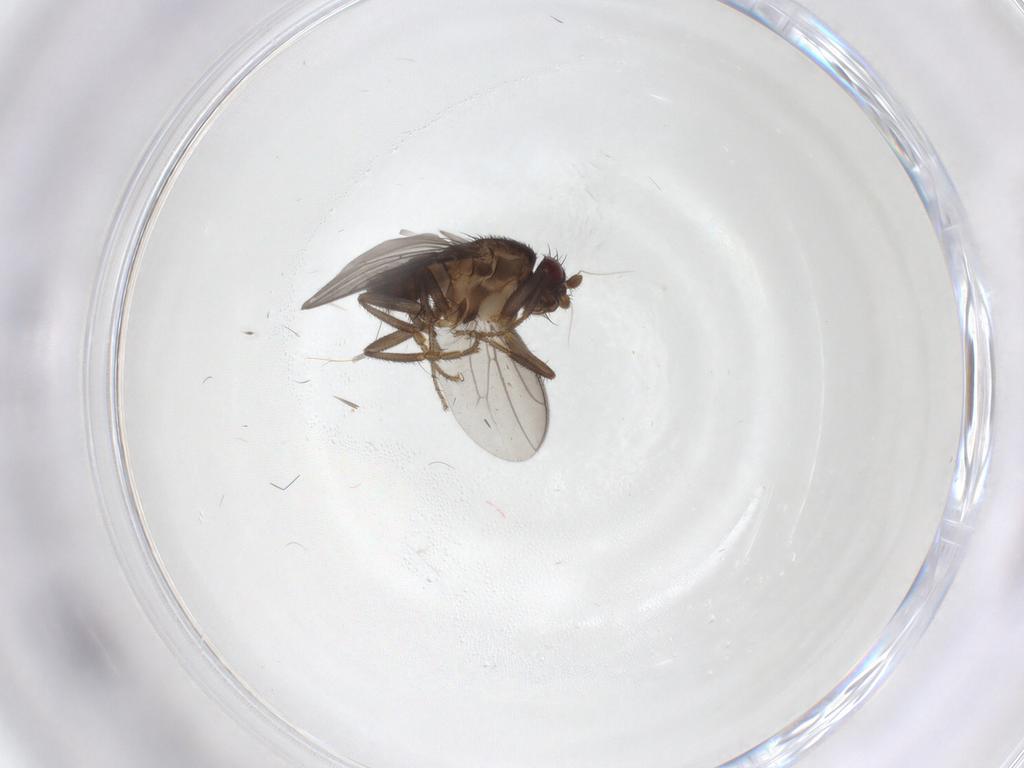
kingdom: Animalia
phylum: Arthropoda
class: Insecta
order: Diptera
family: Sphaeroceridae
